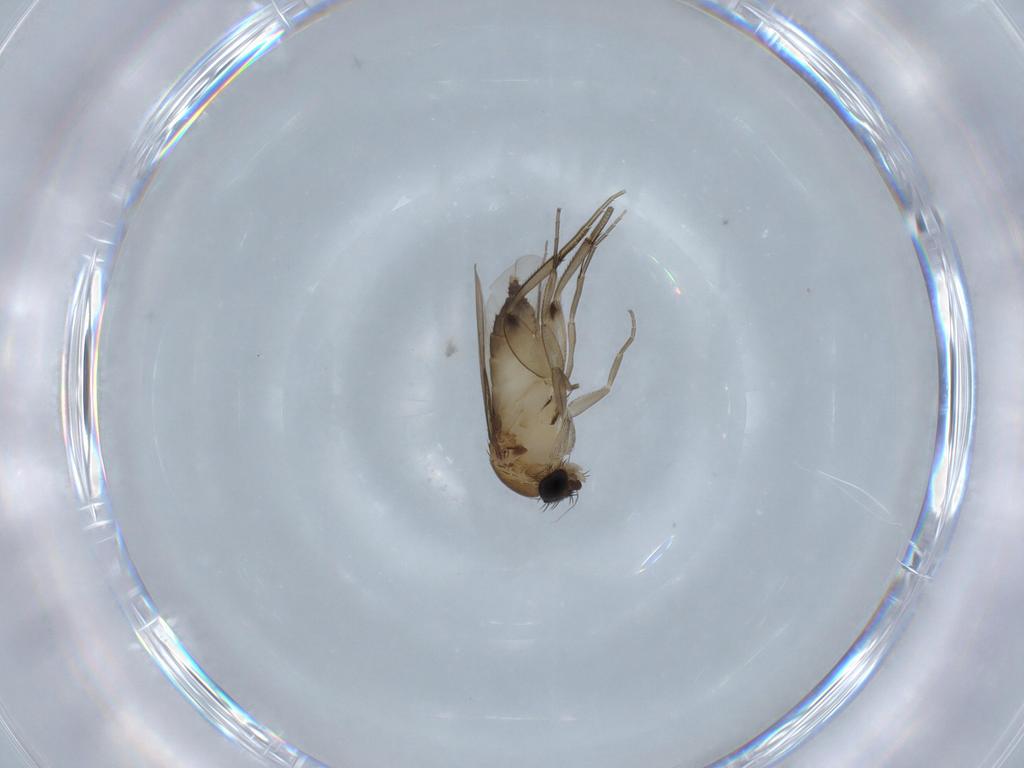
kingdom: Animalia
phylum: Arthropoda
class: Insecta
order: Diptera
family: Phoridae
